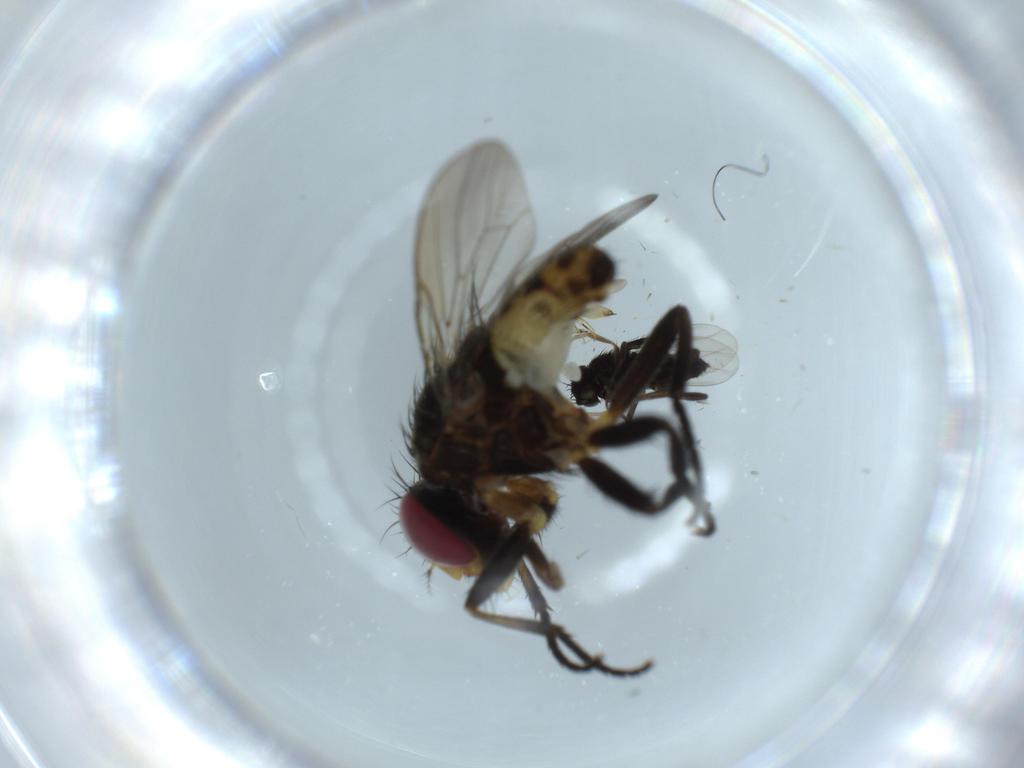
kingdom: Animalia
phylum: Arthropoda
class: Insecta
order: Diptera
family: Anthomyiidae
